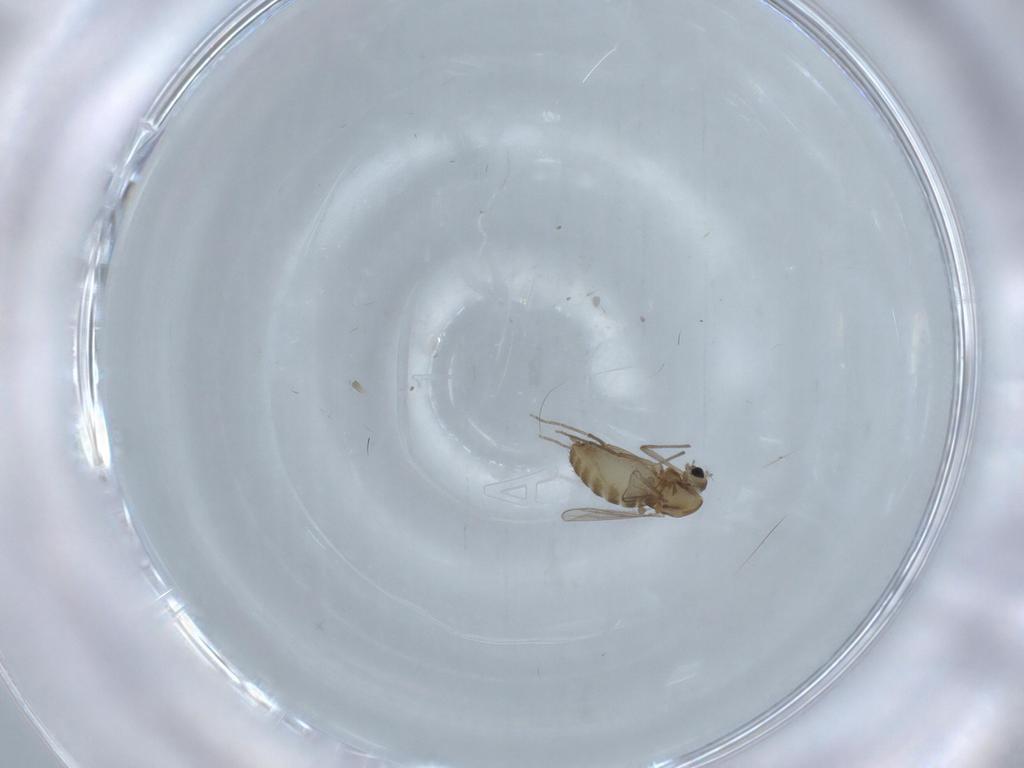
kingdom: Animalia
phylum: Arthropoda
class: Insecta
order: Diptera
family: Chironomidae
